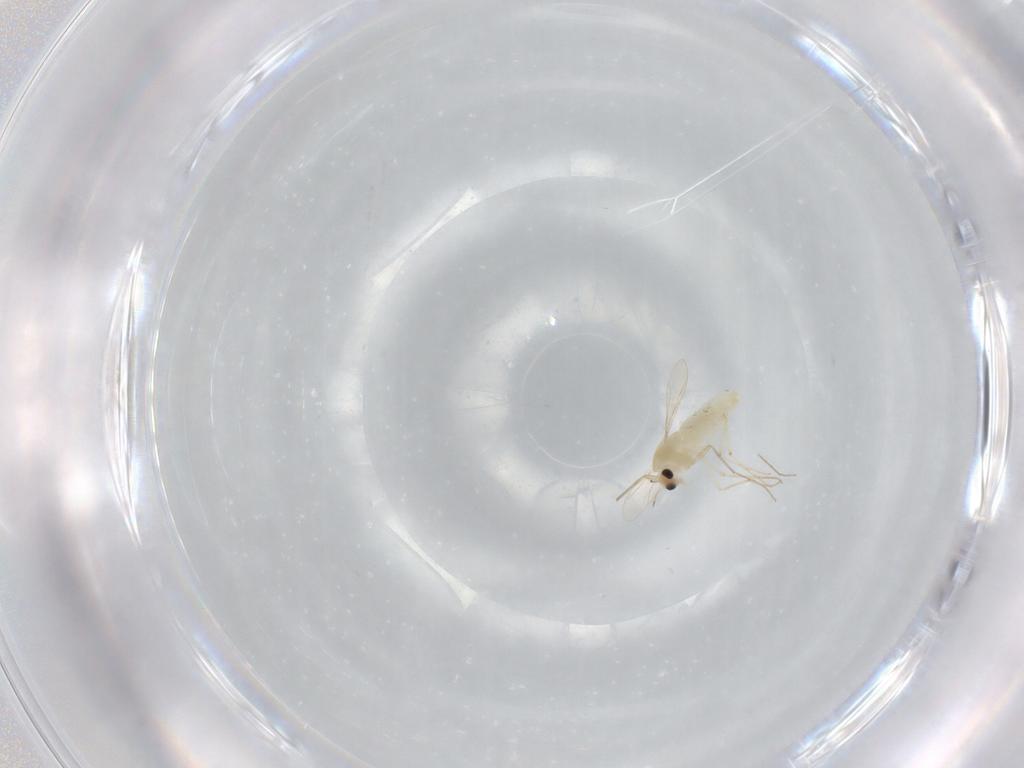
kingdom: Animalia
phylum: Arthropoda
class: Insecta
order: Diptera
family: Chironomidae
